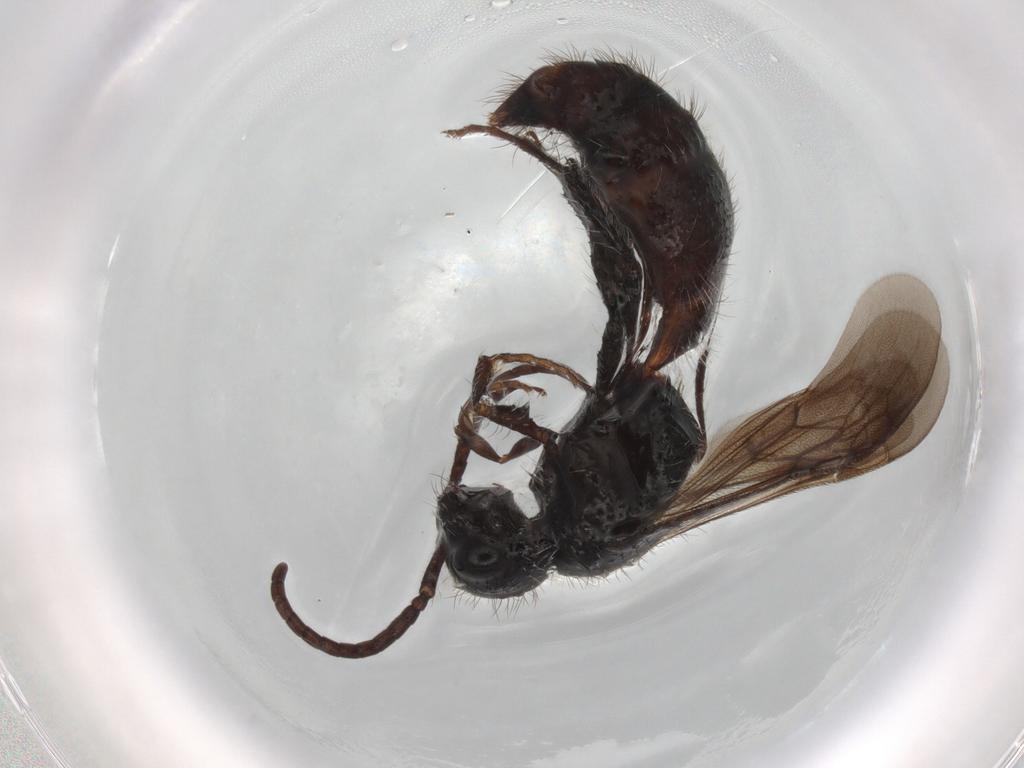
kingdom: Animalia
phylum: Arthropoda
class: Insecta
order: Hymenoptera
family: Mutillidae
